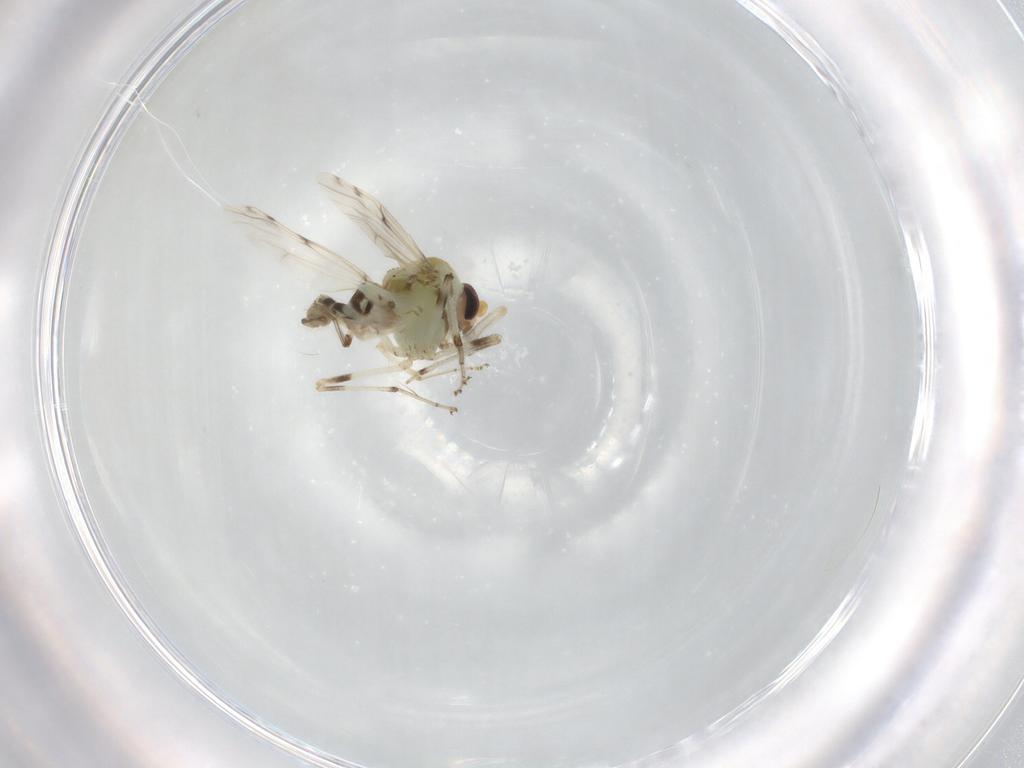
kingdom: Animalia
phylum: Arthropoda
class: Insecta
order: Diptera
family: Ceratopogonidae
